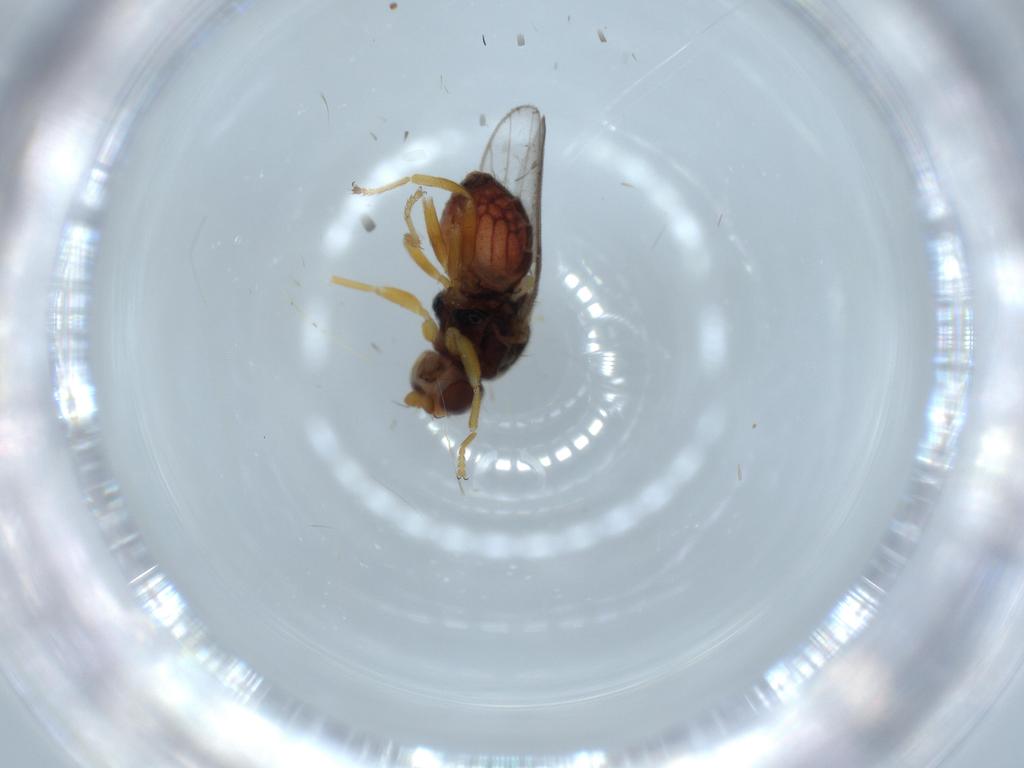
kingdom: Animalia
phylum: Arthropoda
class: Insecta
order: Diptera
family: Chloropidae
